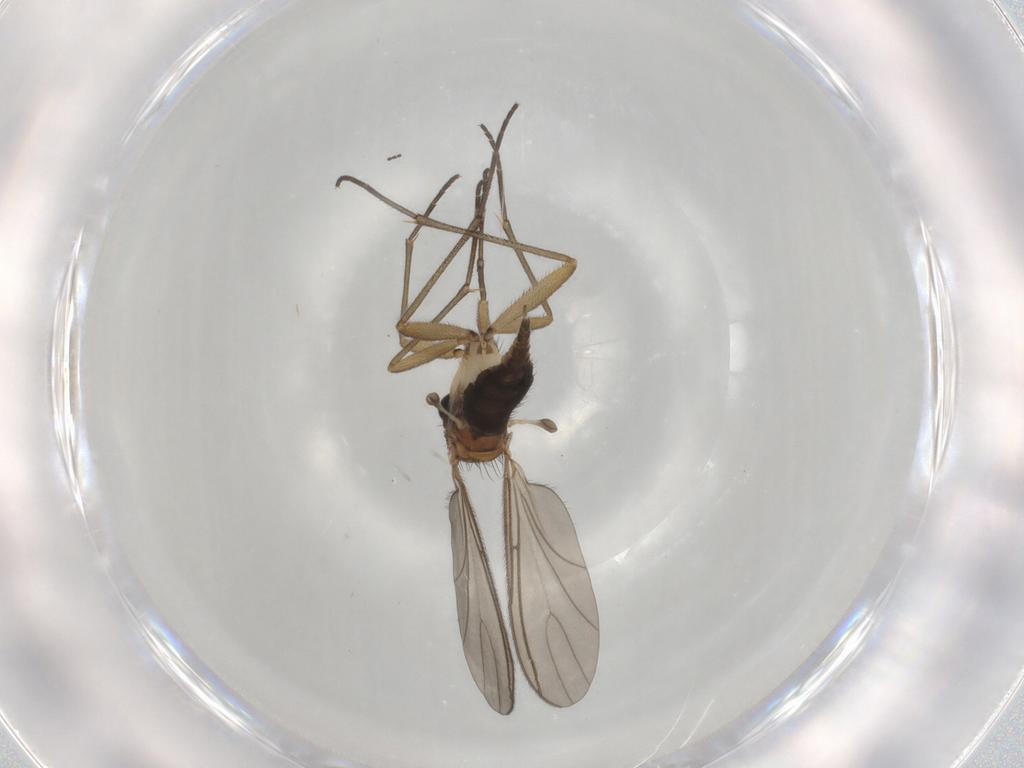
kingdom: Animalia
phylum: Arthropoda
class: Insecta
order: Diptera
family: Sciaridae
